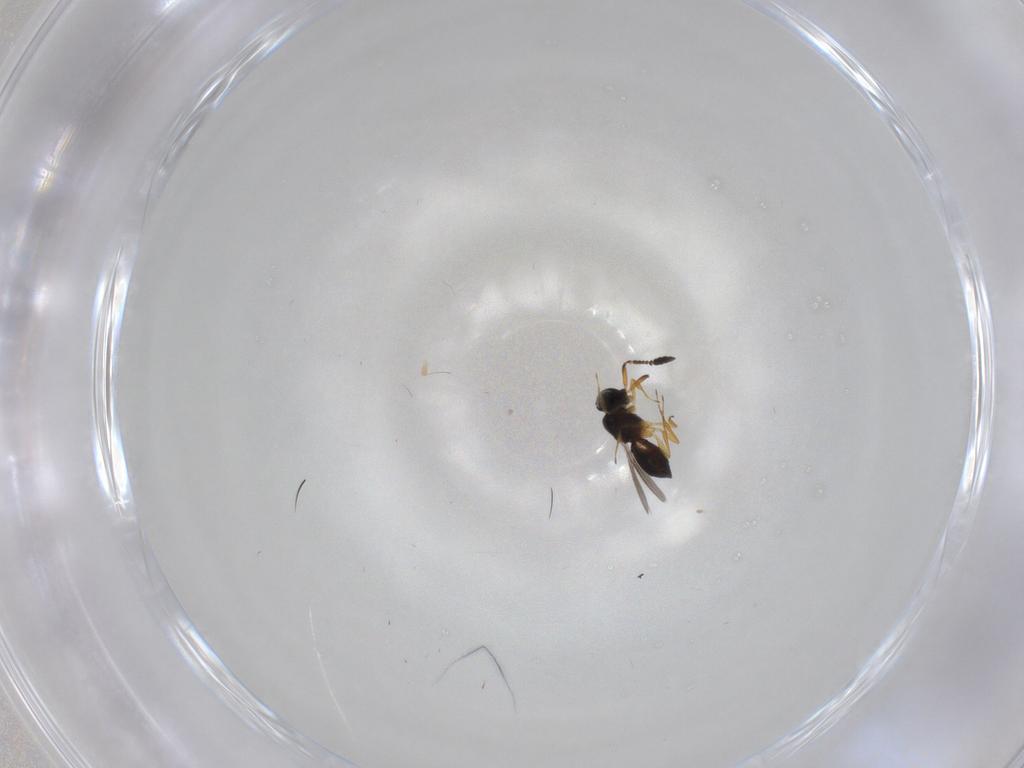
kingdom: Animalia
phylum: Arthropoda
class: Insecta
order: Hymenoptera
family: Scelionidae
